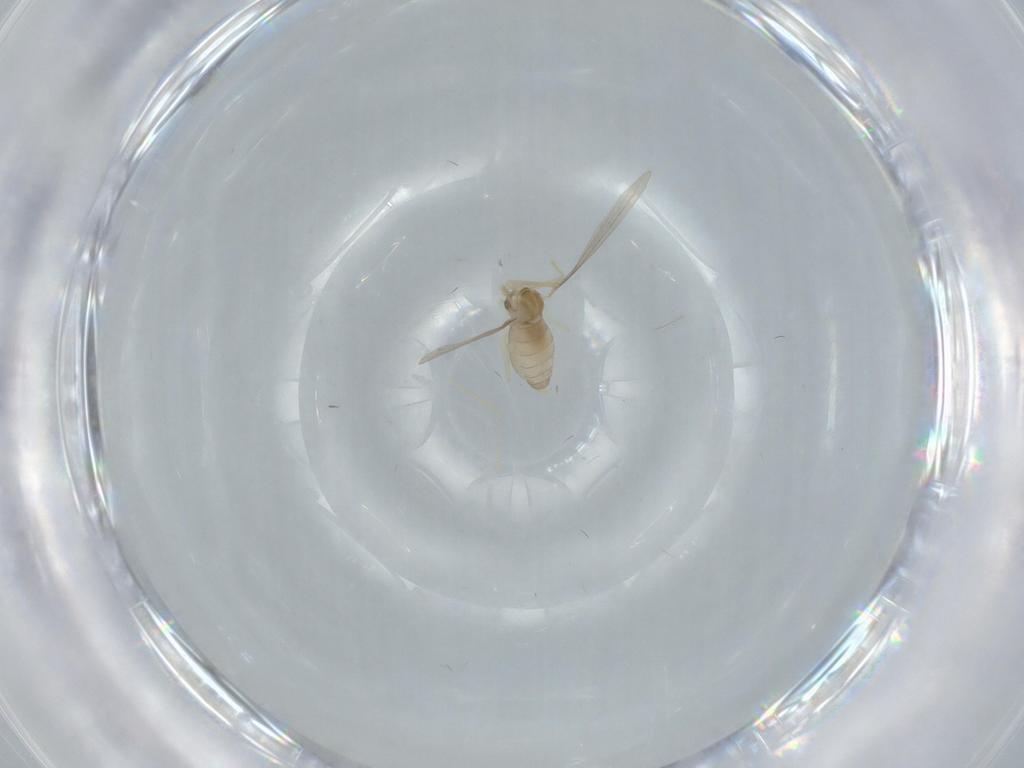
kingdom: Animalia
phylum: Arthropoda
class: Insecta
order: Diptera
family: Cecidomyiidae
